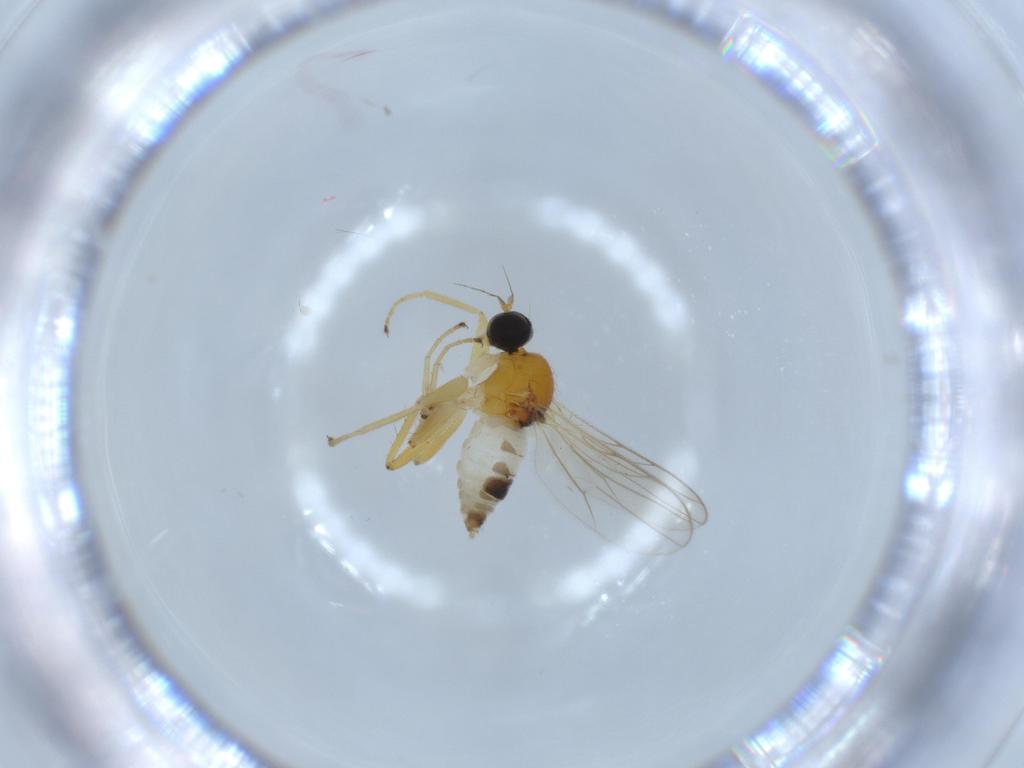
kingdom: Animalia
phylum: Arthropoda
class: Insecta
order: Diptera
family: Hybotidae
